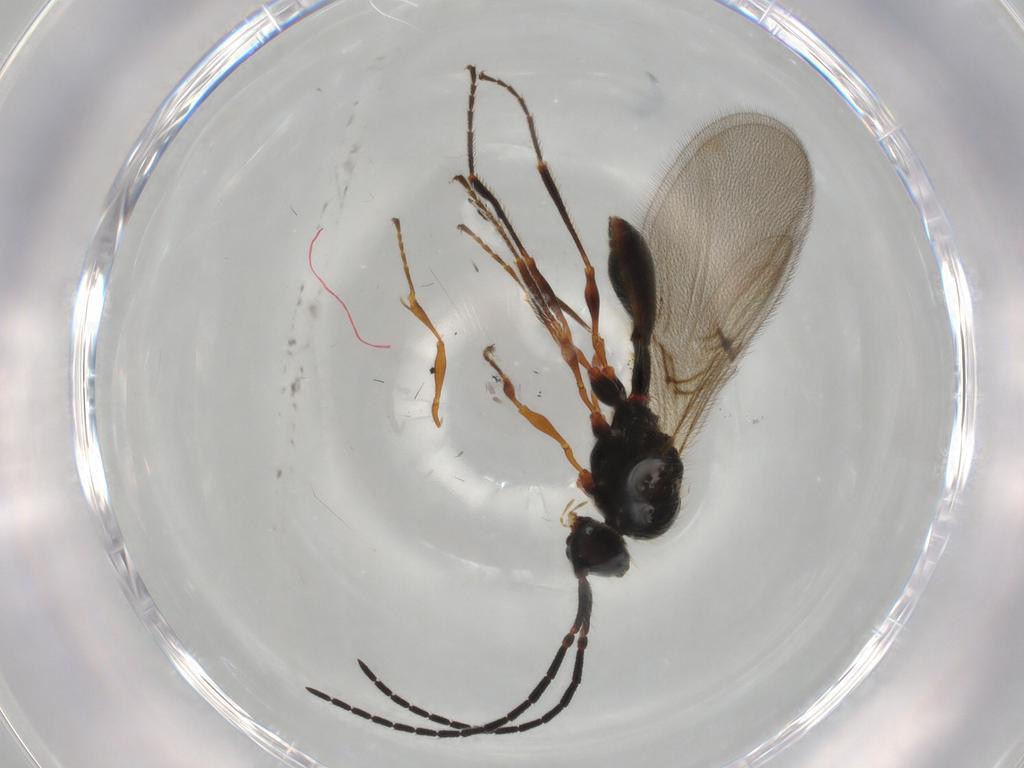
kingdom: Animalia
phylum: Arthropoda
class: Insecta
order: Hymenoptera
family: Diapriidae
